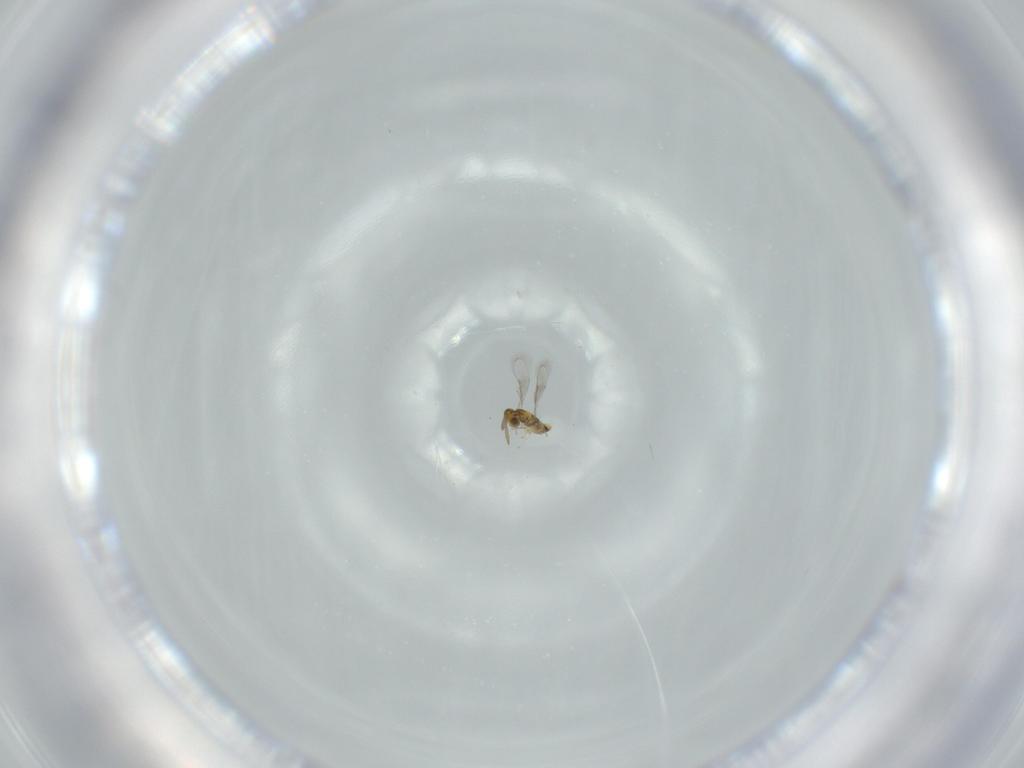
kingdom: Animalia
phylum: Arthropoda
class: Insecta
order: Hymenoptera
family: Aphelinidae
